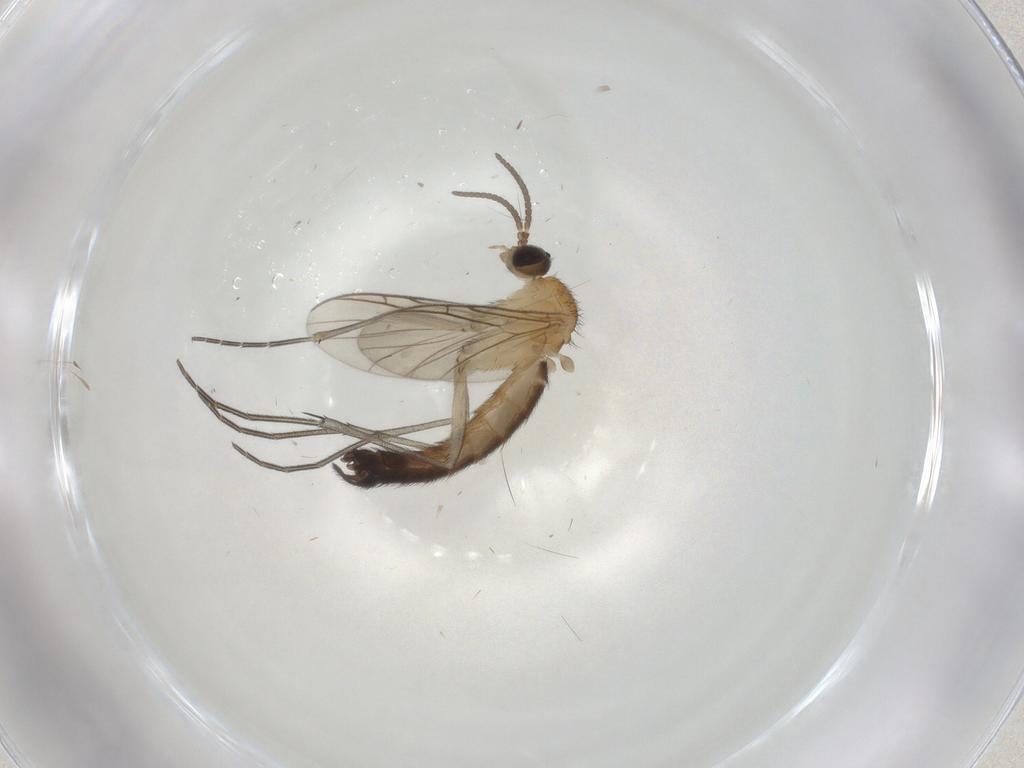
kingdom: Animalia
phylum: Arthropoda
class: Insecta
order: Diptera
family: Keroplatidae
